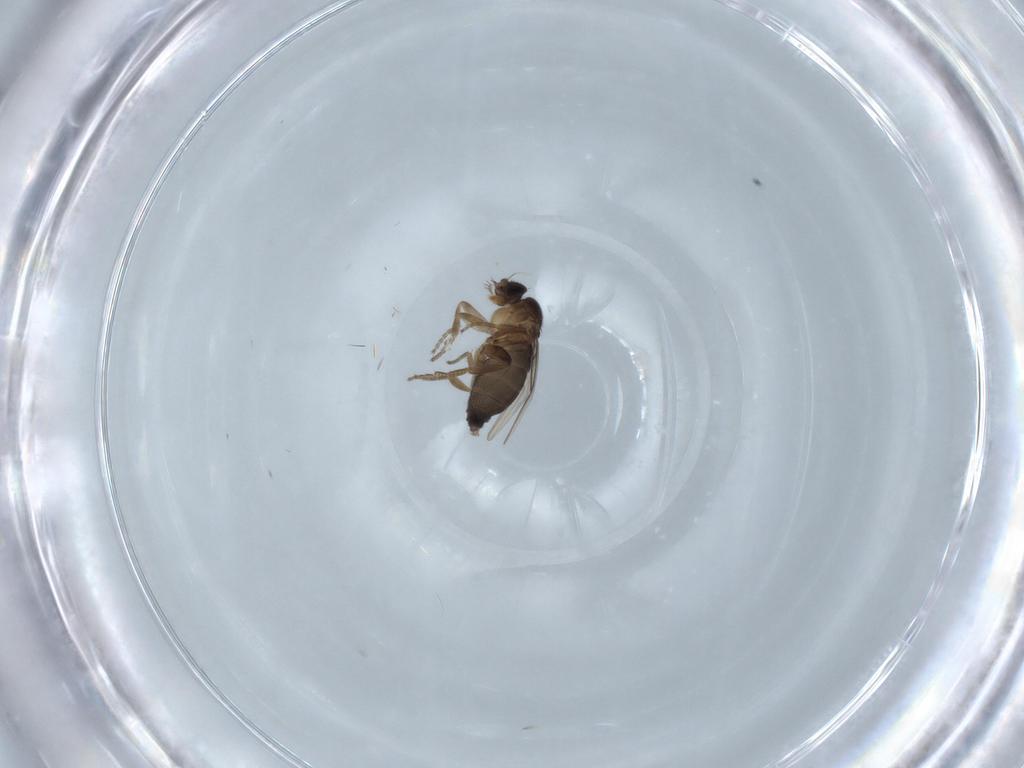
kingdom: Animalia
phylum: Arthropoda
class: Insecta
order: Diptera
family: Phoridae
